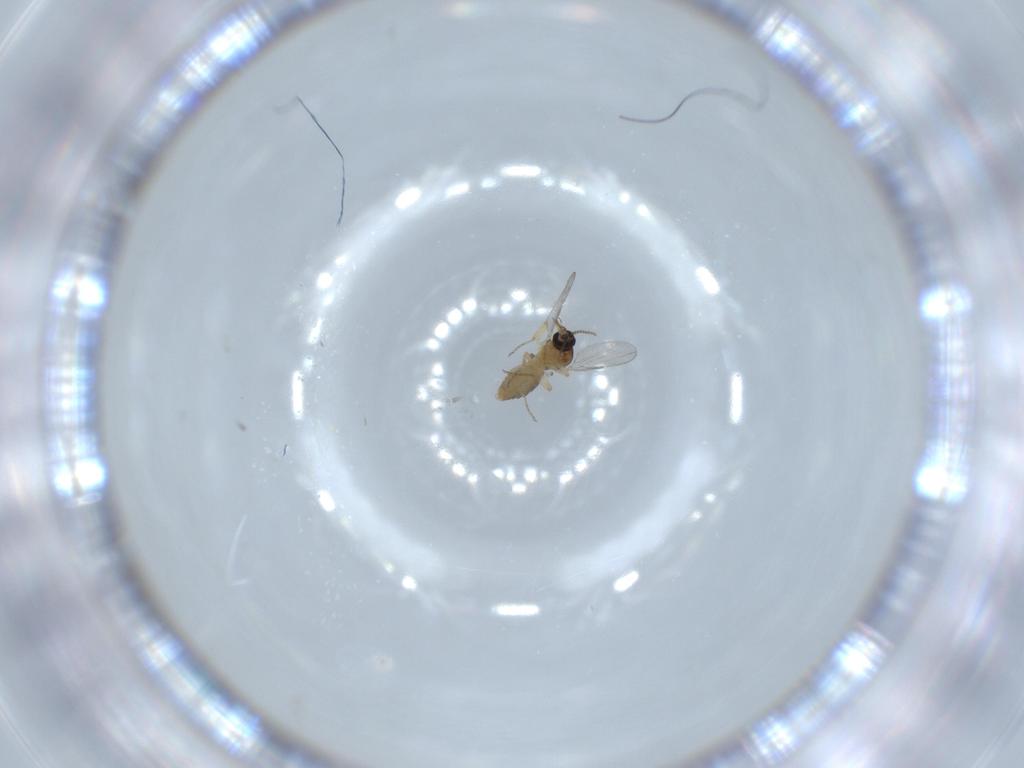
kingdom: Animalia
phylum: Arthropoda
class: Insecta
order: Diptera
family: Ceratopogonidae
